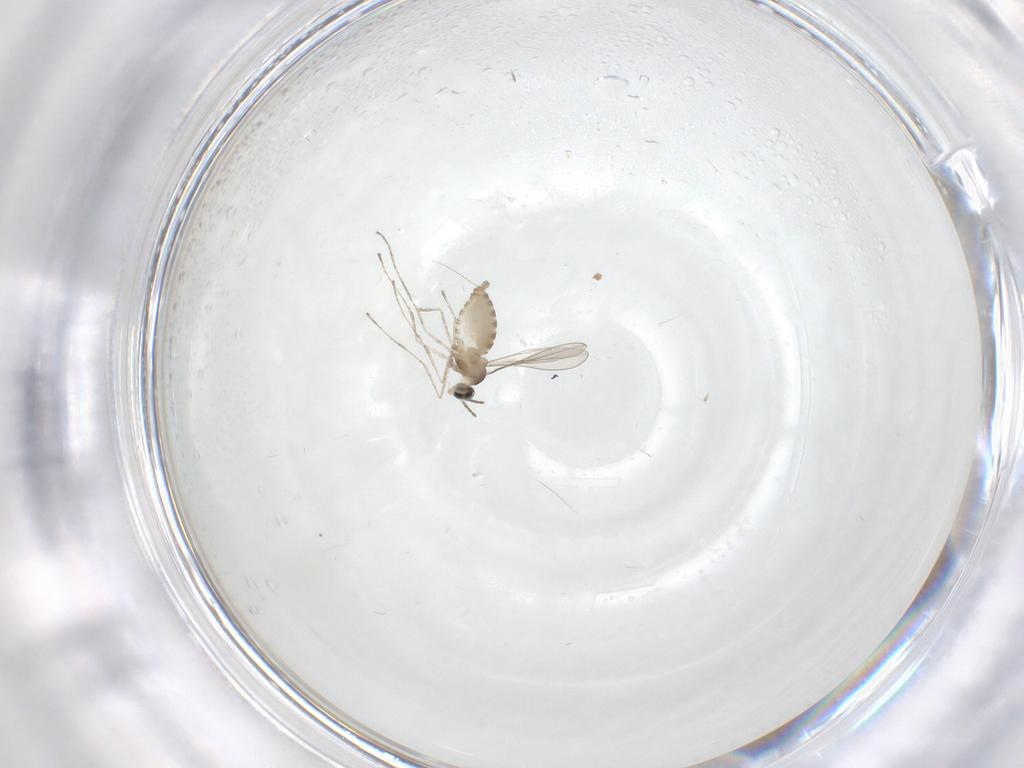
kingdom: Animalia
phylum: Arthropoda
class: Insecta
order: Diptera
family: Cecidomyiidae
